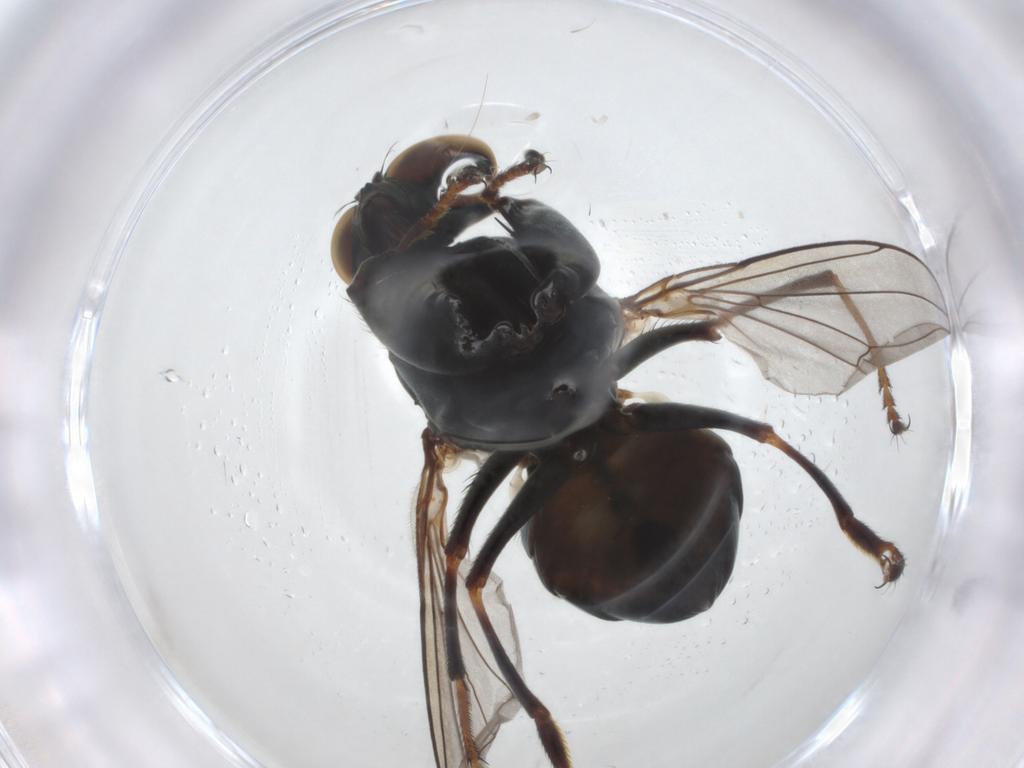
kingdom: Animalia
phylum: Arthropoda
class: Insecta
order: Diptera
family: Ephydridae
